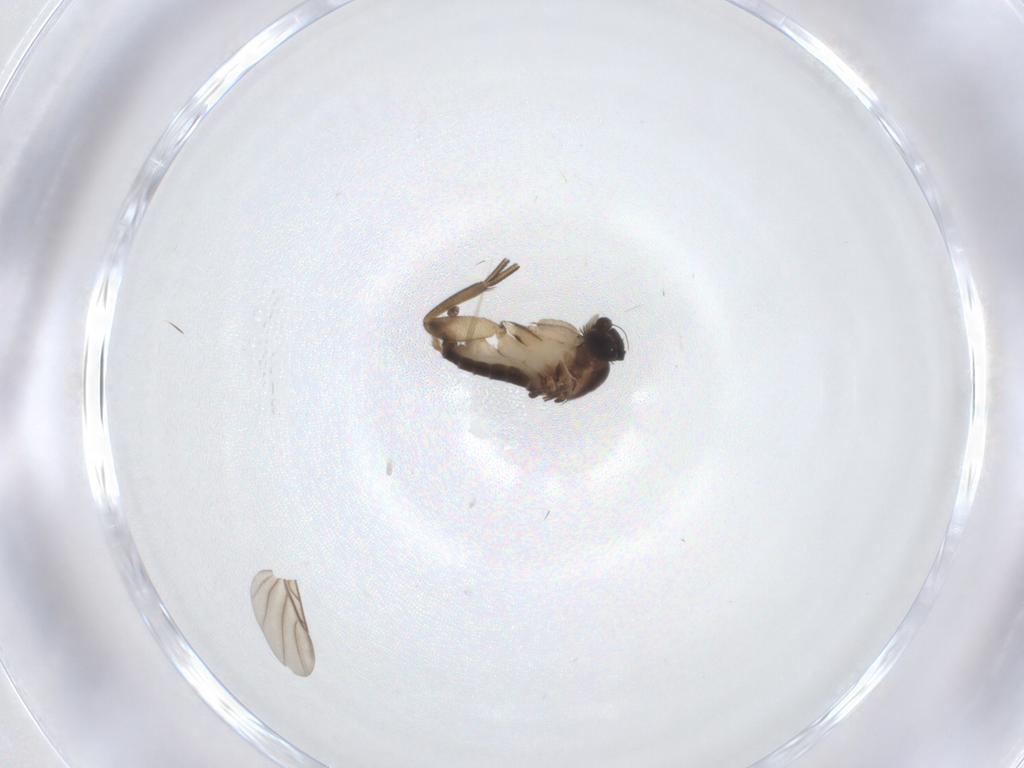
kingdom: Animalia
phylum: Arthropoda
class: Insecta
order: Diptera
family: Phoridae
